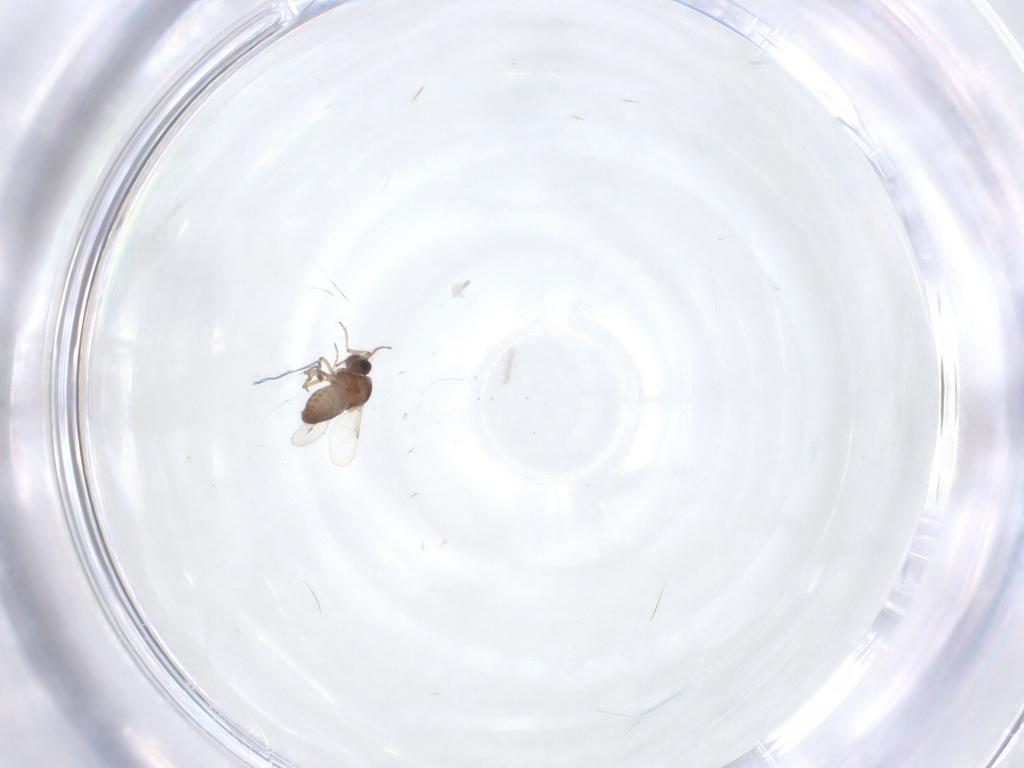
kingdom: Animalia
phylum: Arthropoda
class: Insecta
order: Diptera
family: Ceratopogonidae
